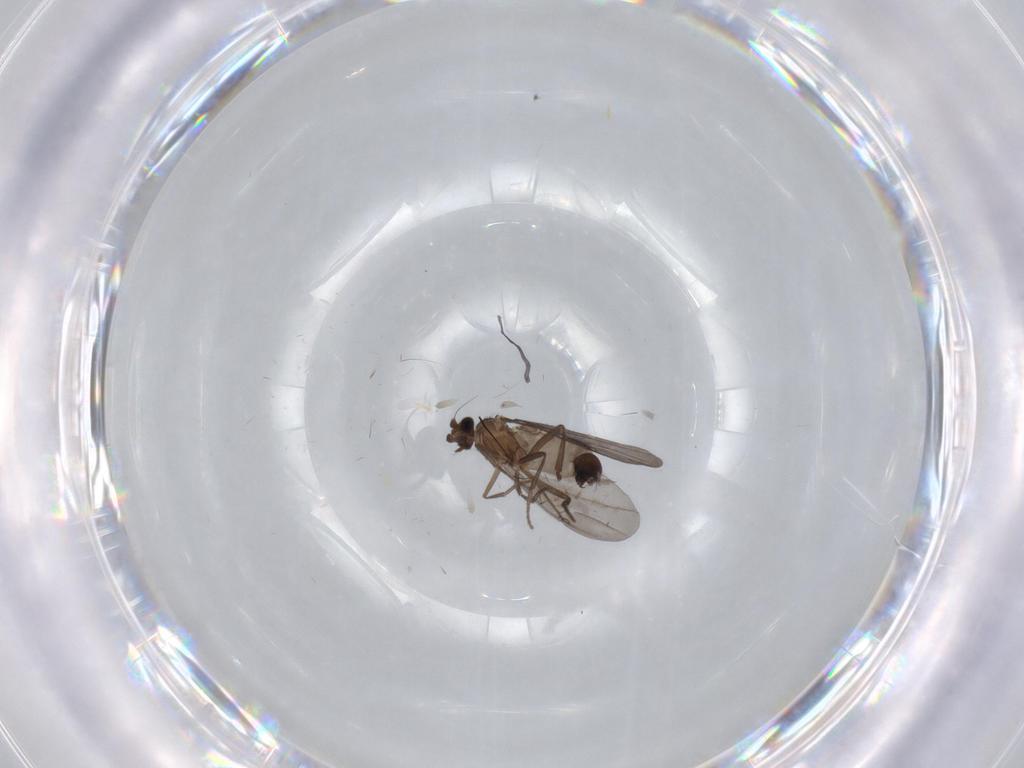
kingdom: Animalia
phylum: Arthropoda
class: Insecta
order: Diptera
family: Phoridae
